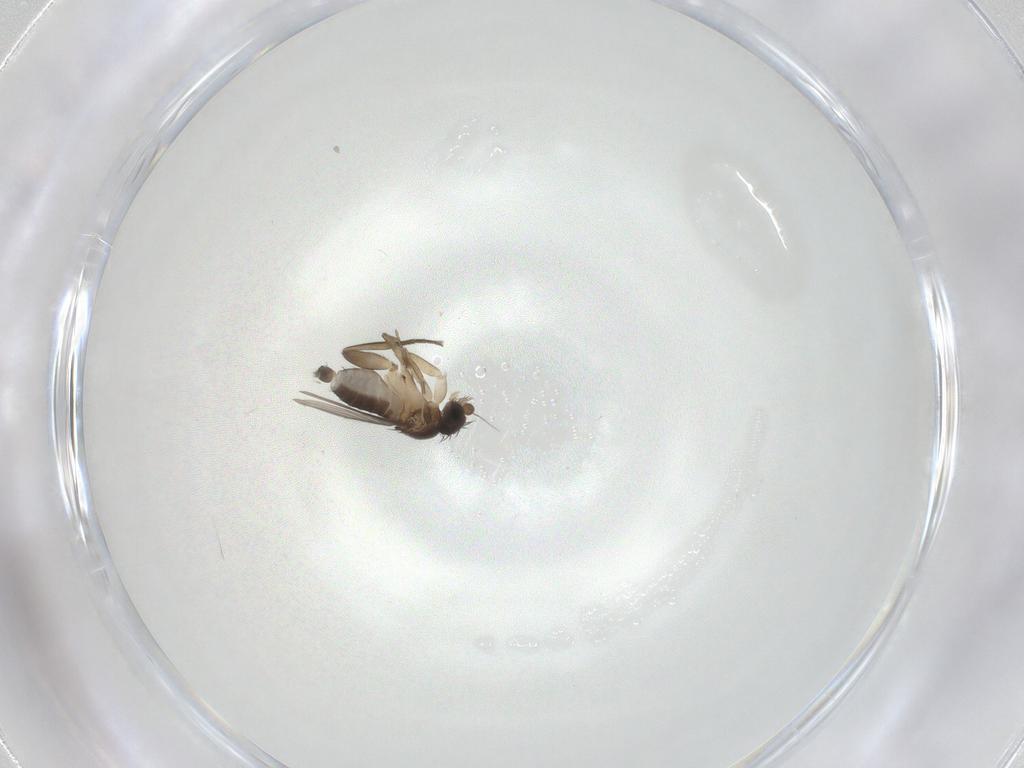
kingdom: Animalia
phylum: Arthropoda
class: Insecta
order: Diptera
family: Phoridae
